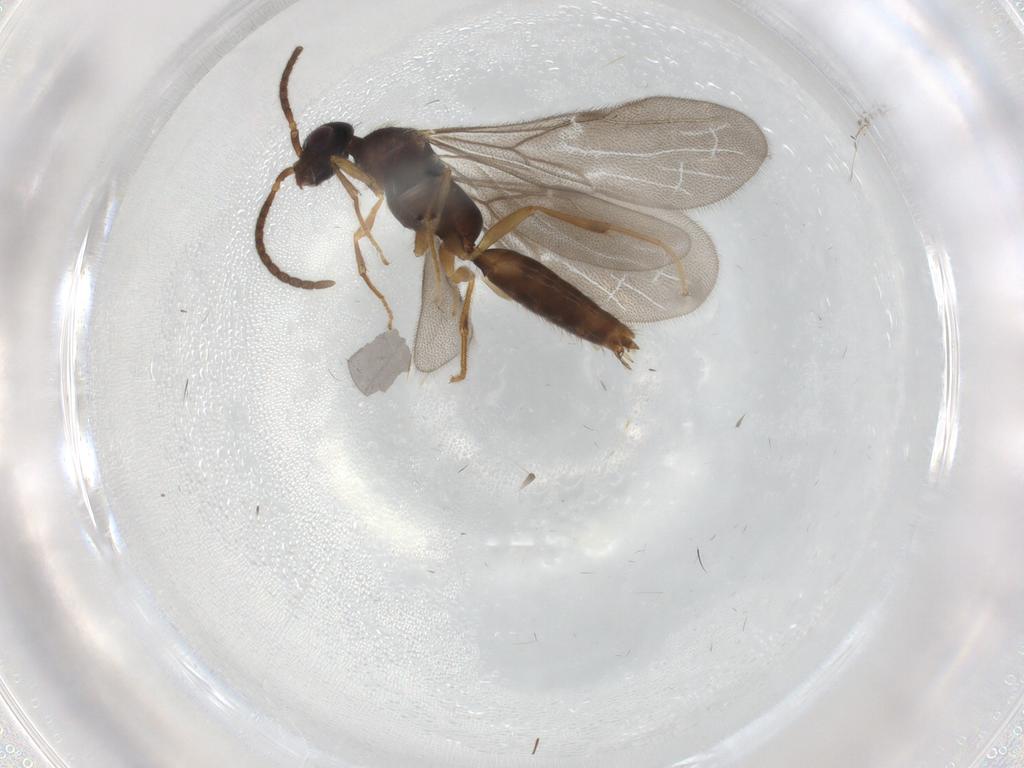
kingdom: Animalia
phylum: Arthropoda
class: Insecta
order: Hymenoptera
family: Bethylidae
